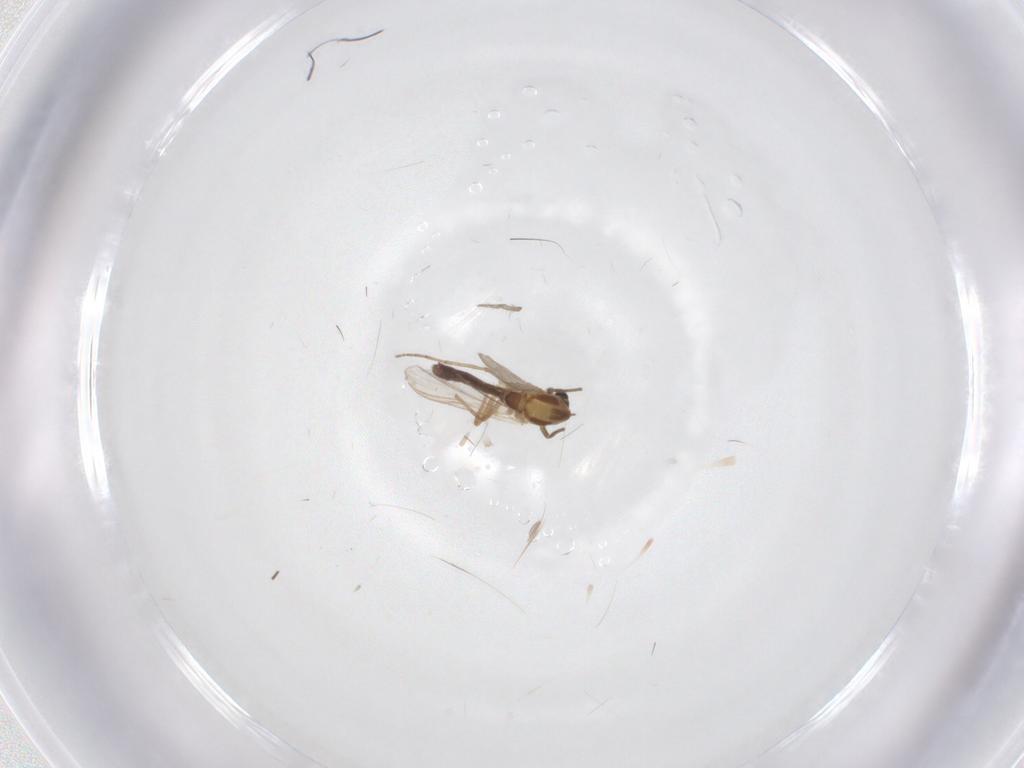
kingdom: Animalia
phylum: Arthropoda
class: Insecta
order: Diptera
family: Chironomidae
